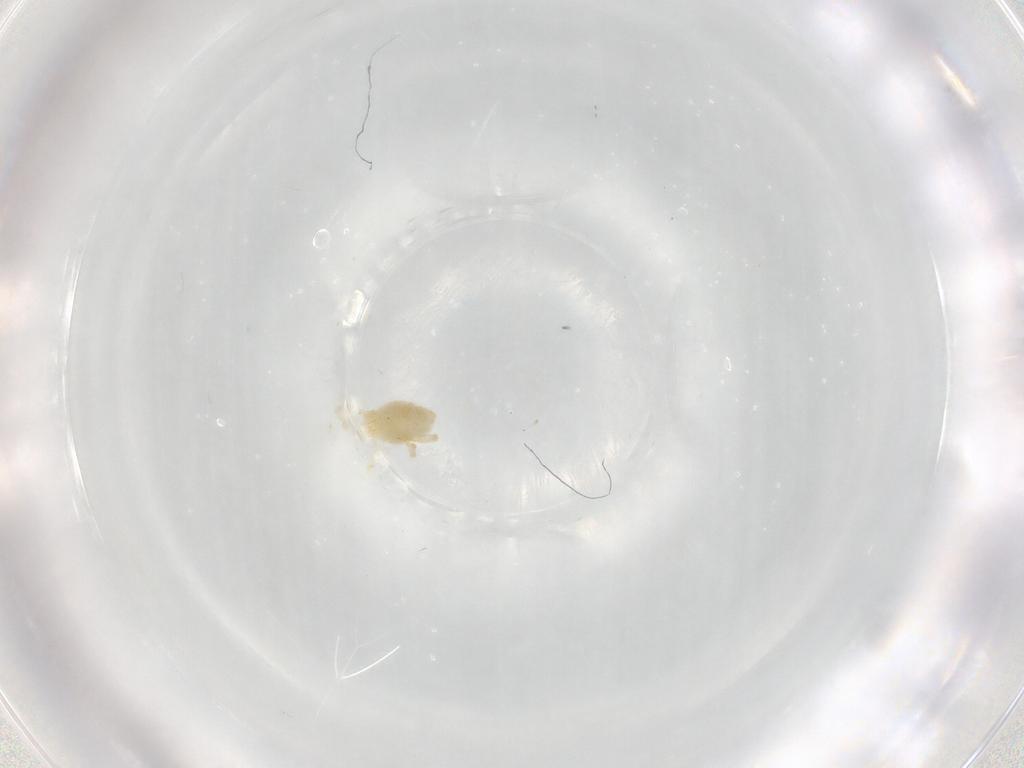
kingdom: Animalia
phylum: Arthropoda
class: Arachnida
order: Trombidiformes
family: Erythraeidae
